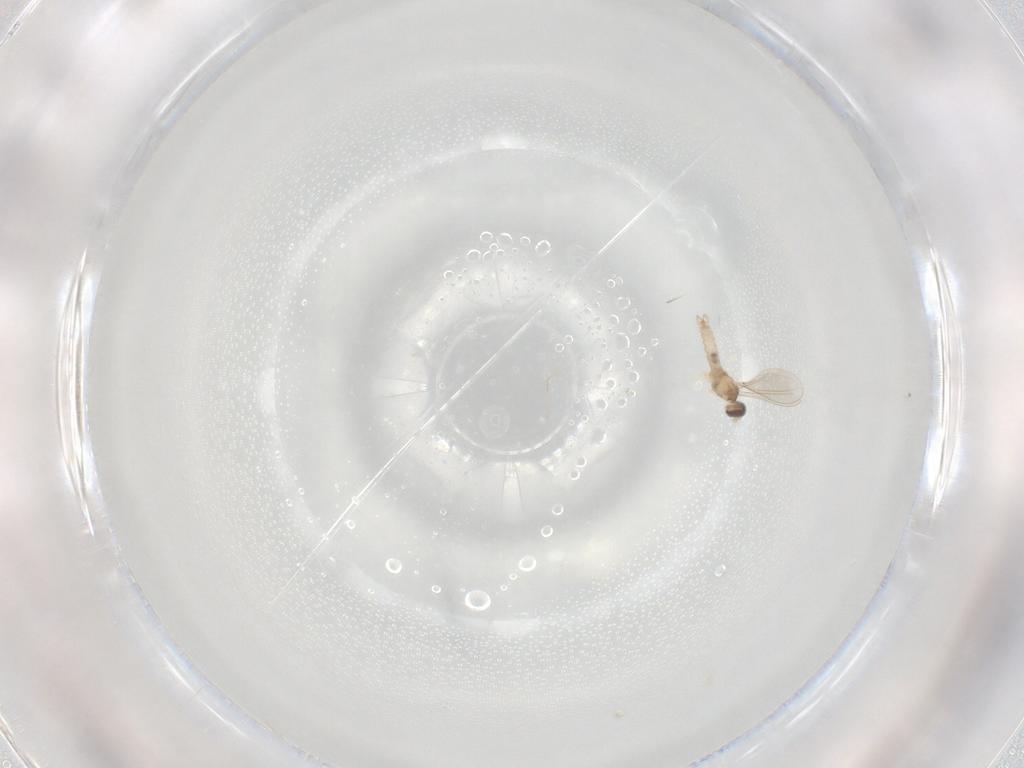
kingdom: Animalia
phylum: Arthropoda
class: Insecta
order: Diptera
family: Cecidomyiidae
